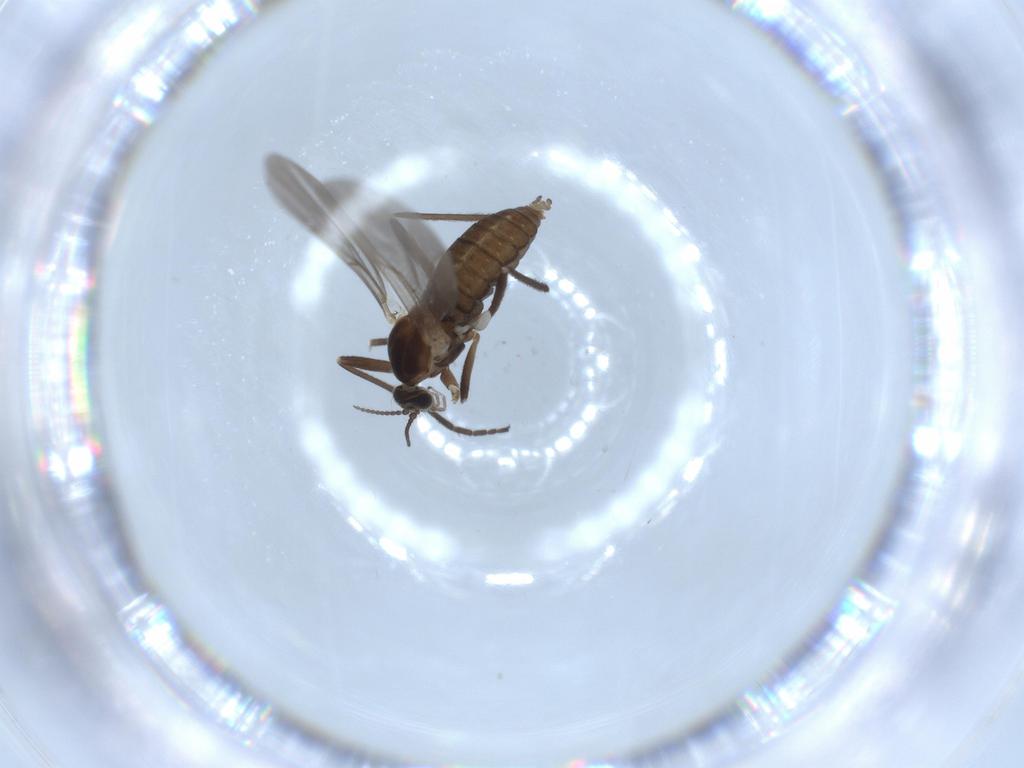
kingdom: Animalia
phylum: Arthropoda
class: Insecta
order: Diptera
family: Cecidomyiidae
